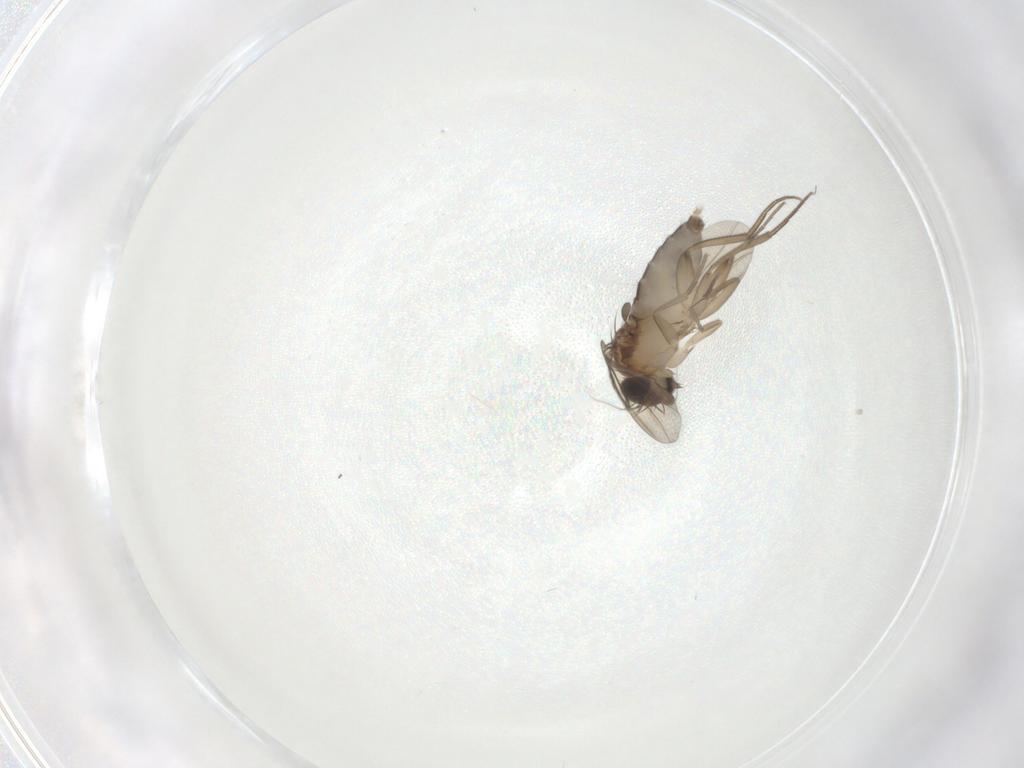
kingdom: Animalia
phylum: Arthropoda
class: Insecta
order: Diptera
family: Phoridae
